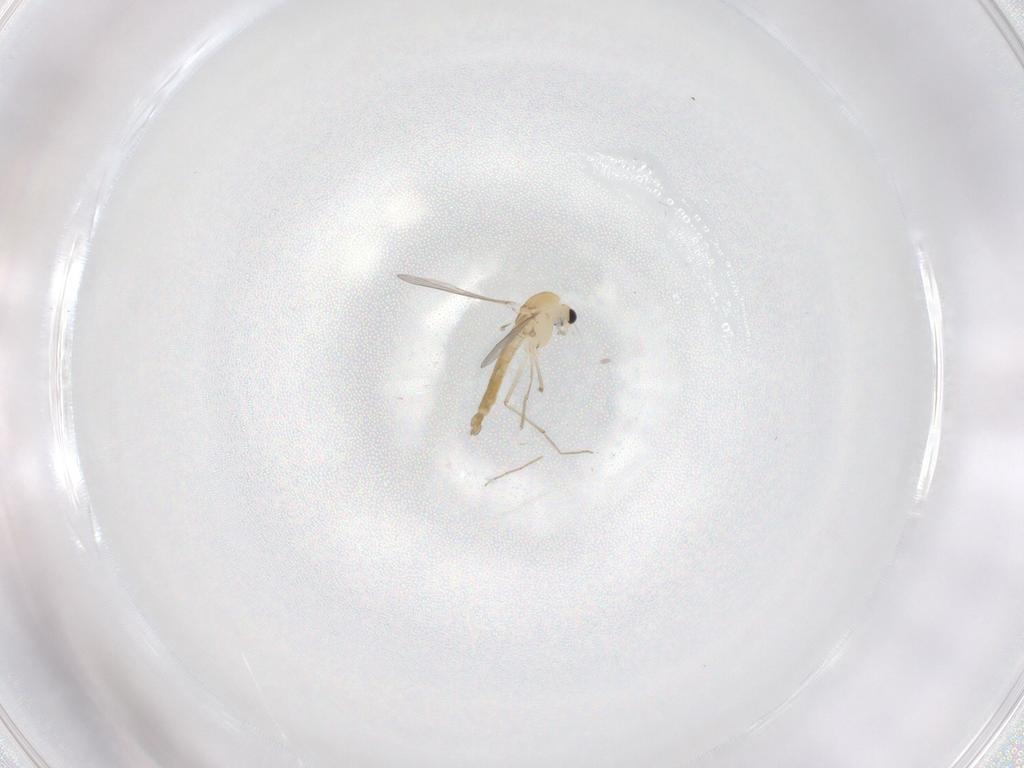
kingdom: Animalia
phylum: Arthropoda
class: Insecta
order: Diptera
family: Chironomidae
